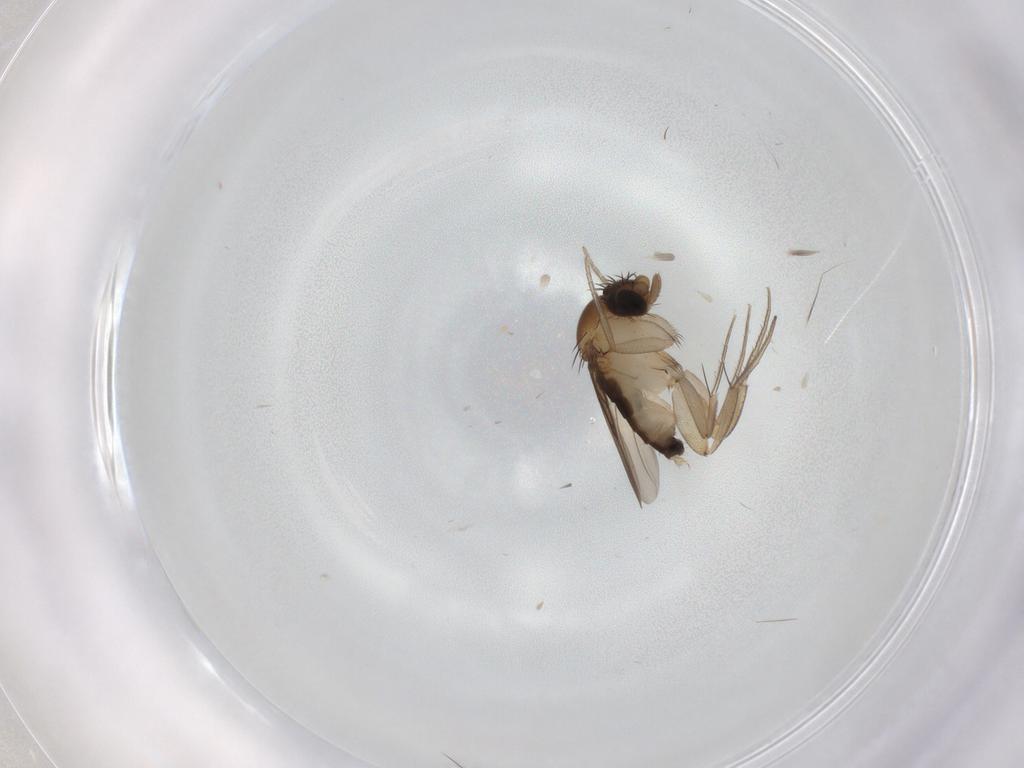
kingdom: Animalia
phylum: Arthropoda
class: Insecta
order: Diptera
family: Phoridae
